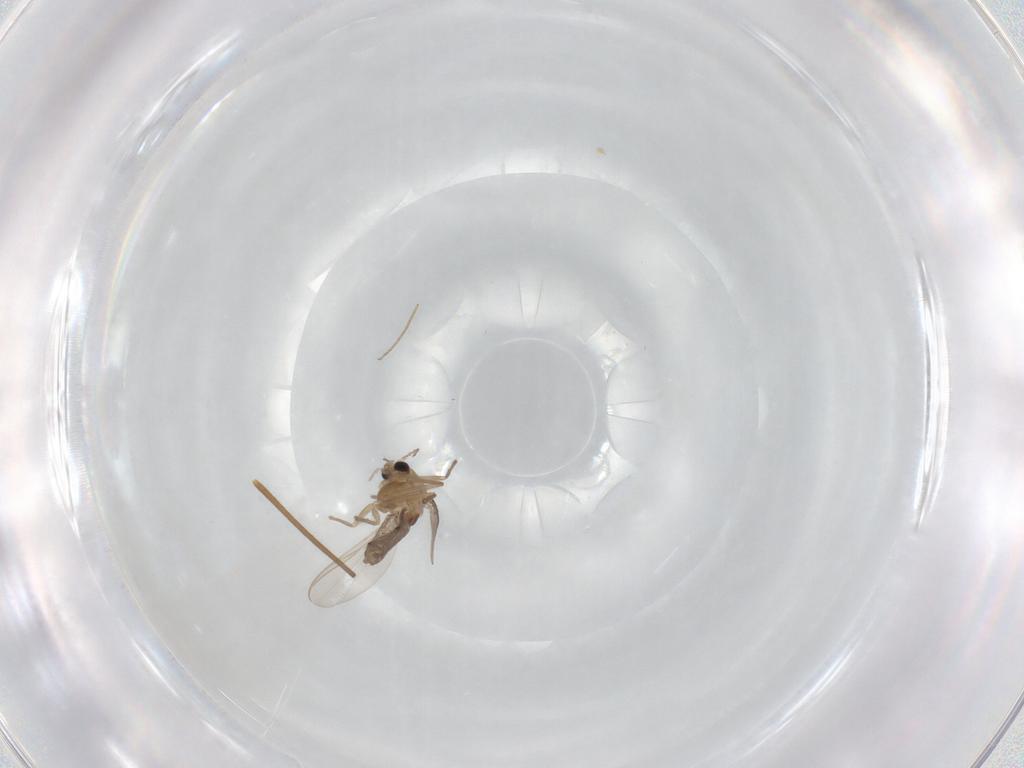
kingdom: Animalia
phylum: Arthropoda
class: Insecta
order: Diptera
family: Chironomidae
